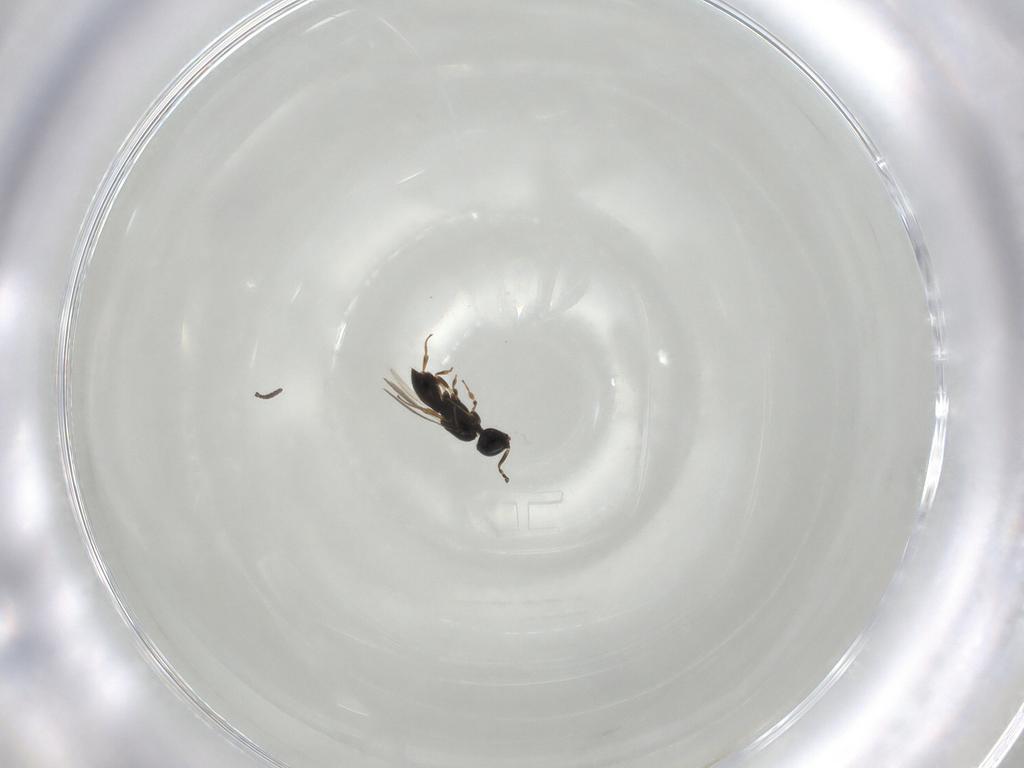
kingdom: Animalia
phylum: Arthropoda
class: Insecta
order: Hymenoptera
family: Scelionidae
